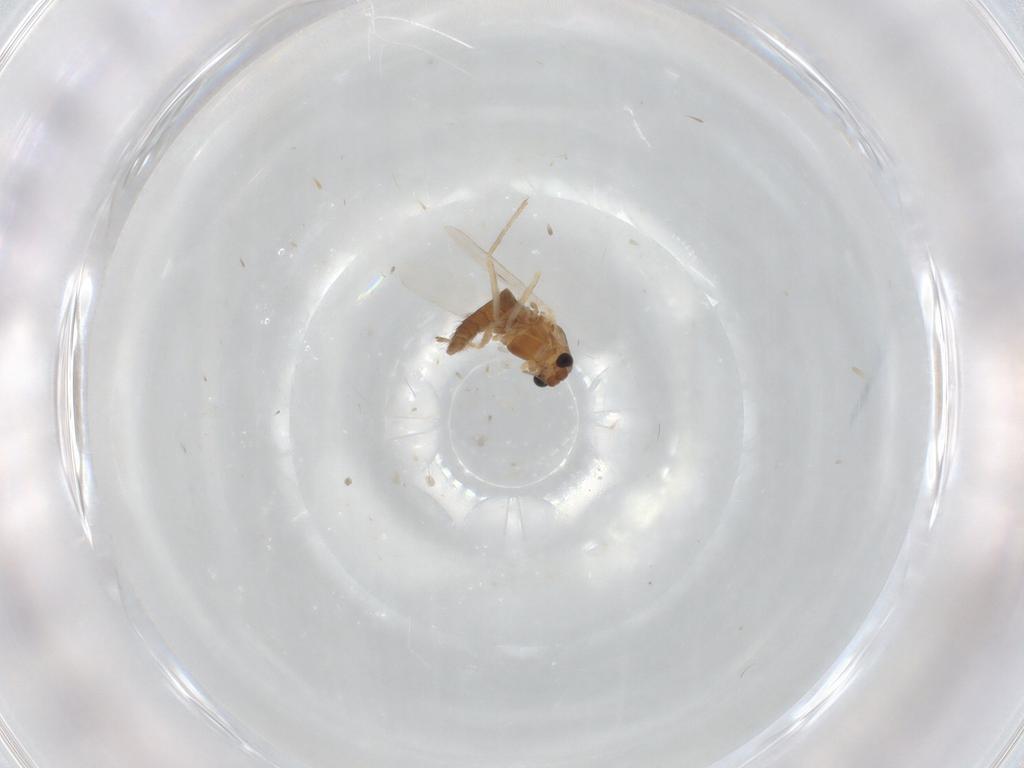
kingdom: Animalia
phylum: Arthropoda
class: Insecta
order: Diptera
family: Chironomidae
